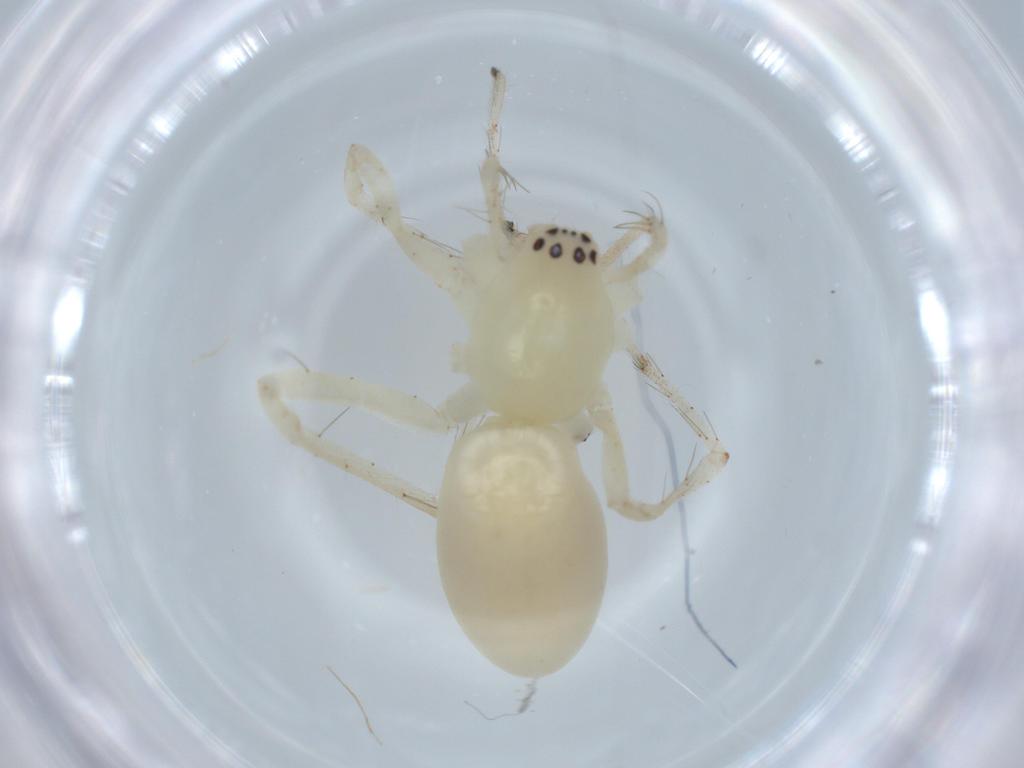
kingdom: Animalia
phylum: Arthropoda
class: Arachnida
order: Araneae
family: Anyphaenidae
